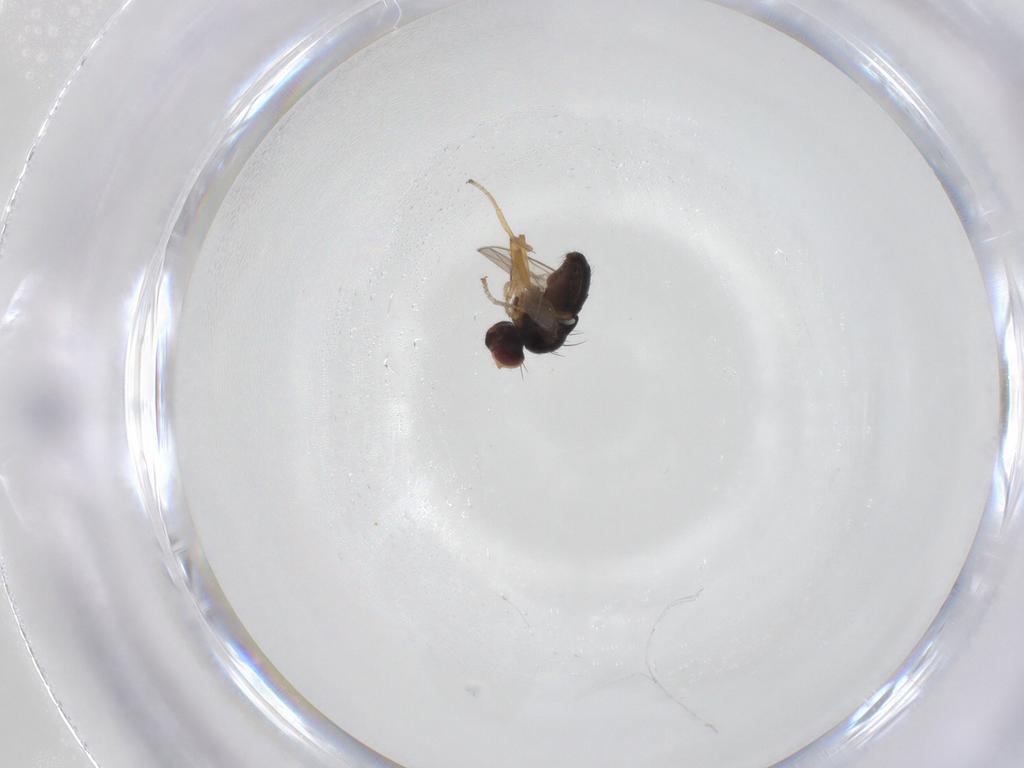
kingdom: Animalia
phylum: Arthropoda
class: Insecta
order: Diptera
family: Ephydridae
